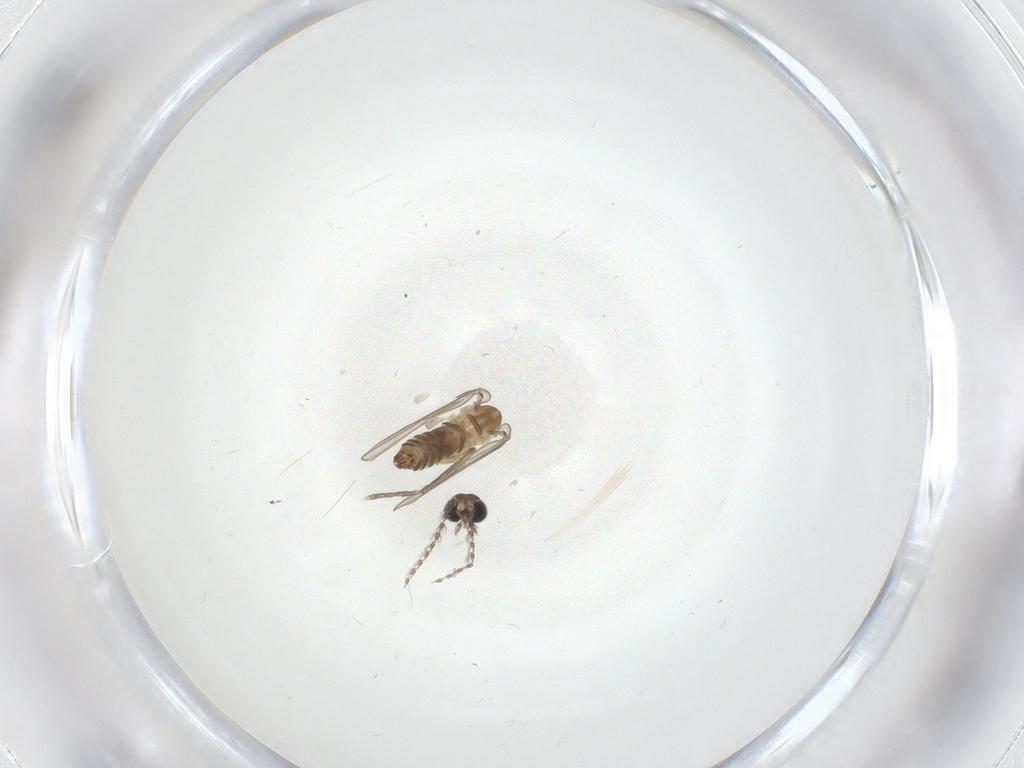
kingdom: Animalia
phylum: Arthropoda
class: Insecta
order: Diptera
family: Psychodidae
